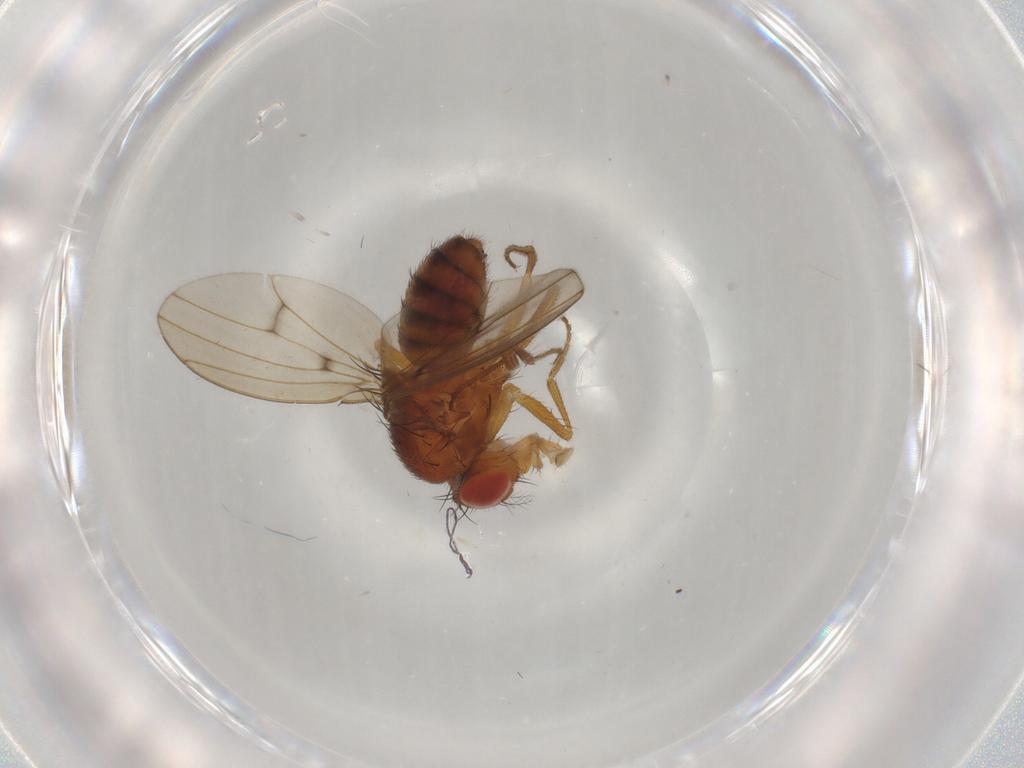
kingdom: Animalia
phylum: Arthropoda
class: Insecta
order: Diptera
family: Drosophilidae
